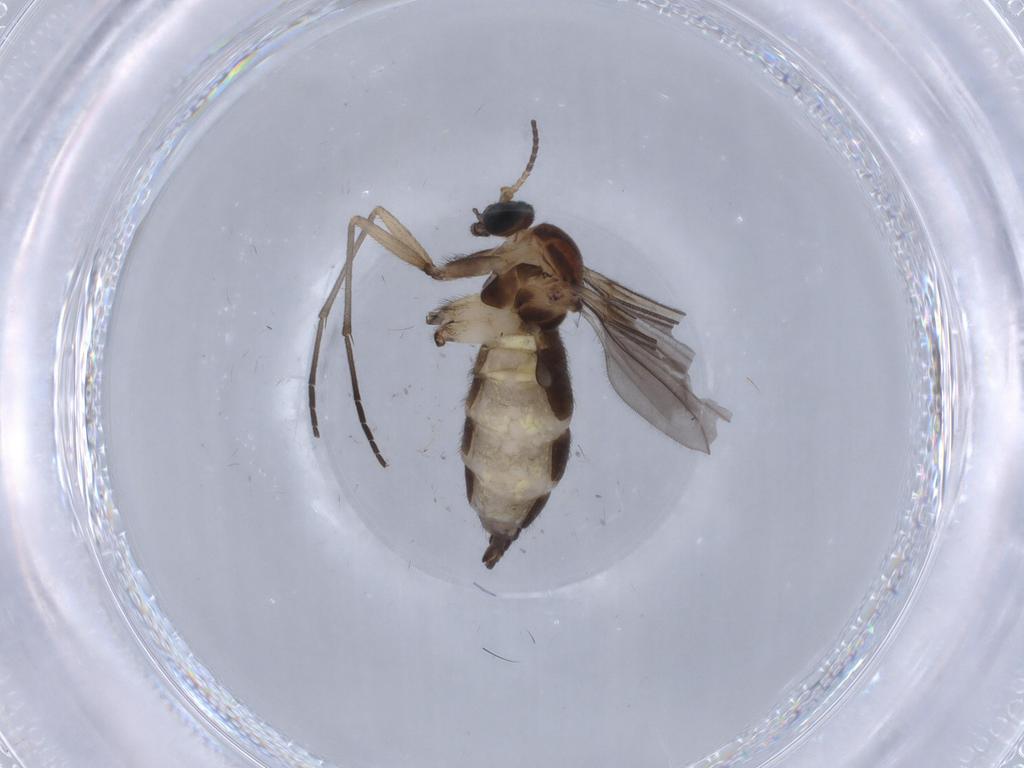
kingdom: Animalia
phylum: Arthropoda
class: Insecta
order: Diptera
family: Sciaridae
